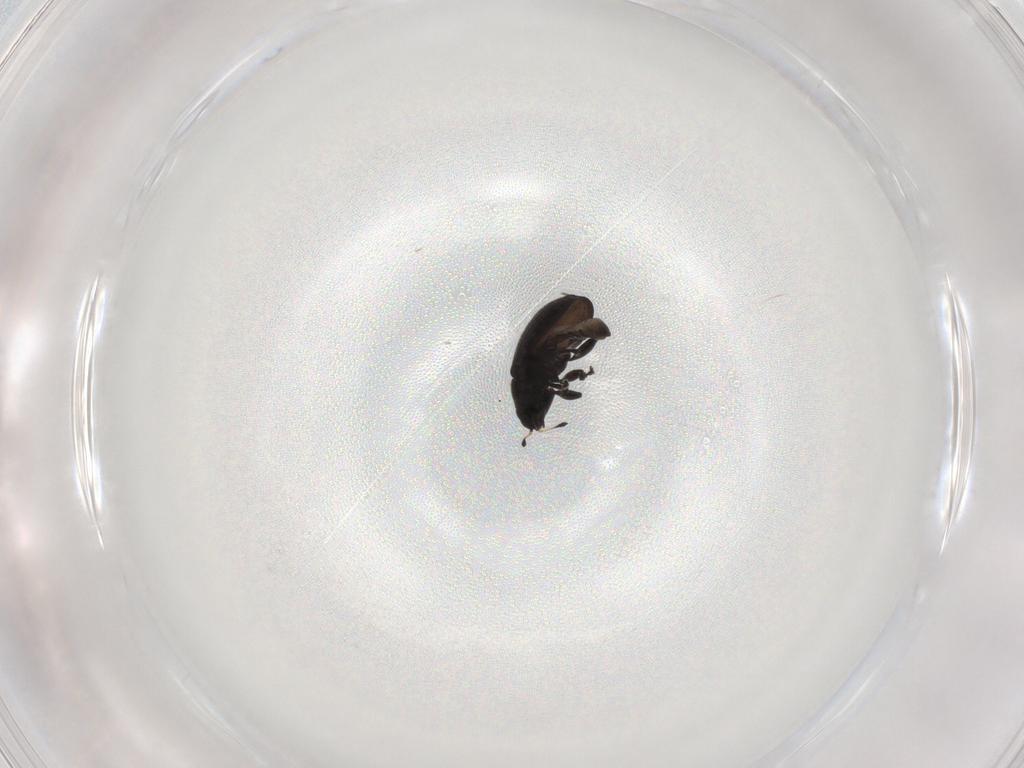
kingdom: Animalia
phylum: Arthropoda
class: Insecta
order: Coleoptera
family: Curculionidae
